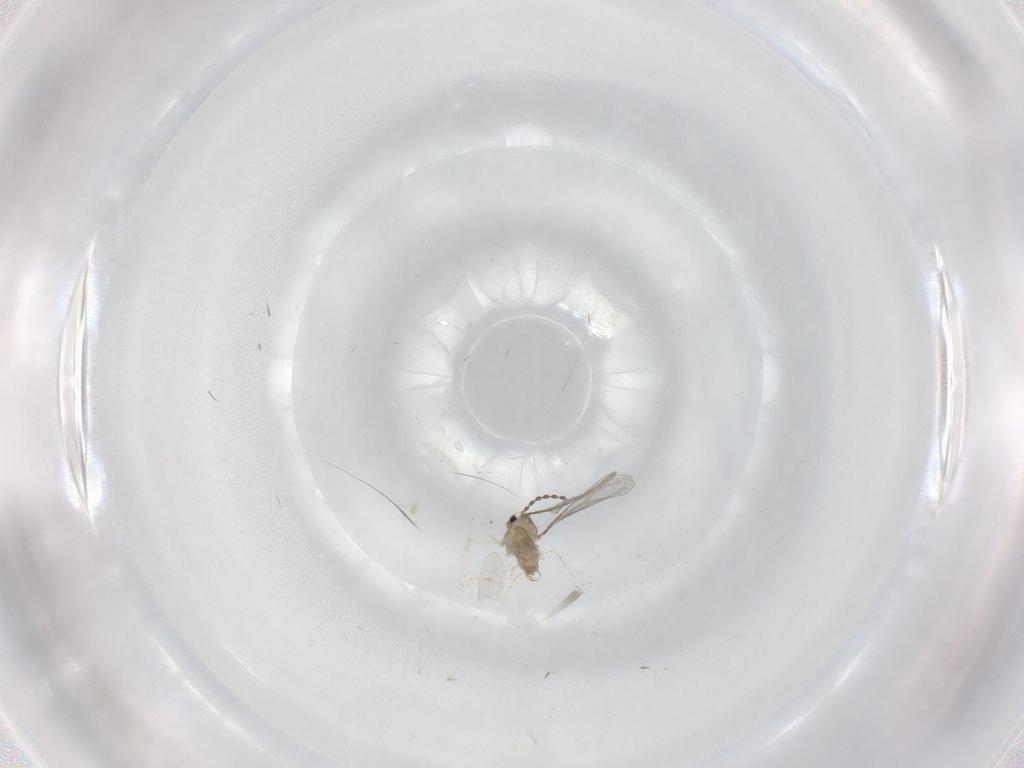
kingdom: Animalia
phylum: Arthropoda
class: Insecta
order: Diptera
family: Cecidomyiidae
